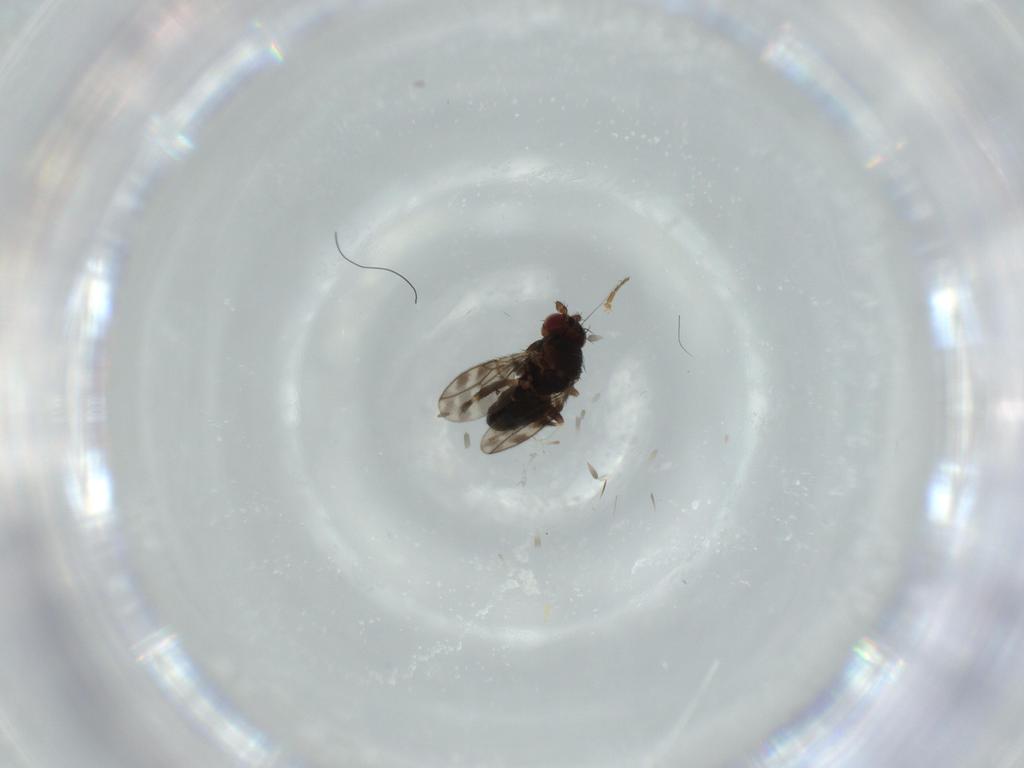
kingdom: Animalia
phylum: Arthropoda
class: Insecta
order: Diptera
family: Sphaeroceridae
